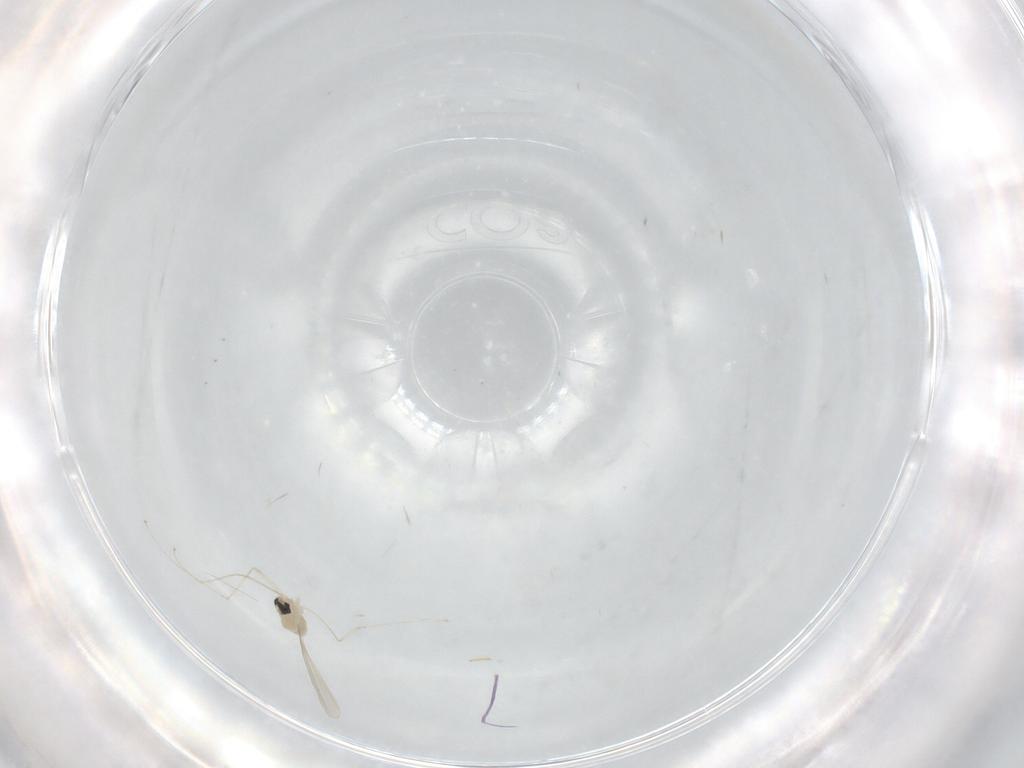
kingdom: Animalia
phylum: Arthropoda
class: Insecta
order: Diptera
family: Psychodidae
